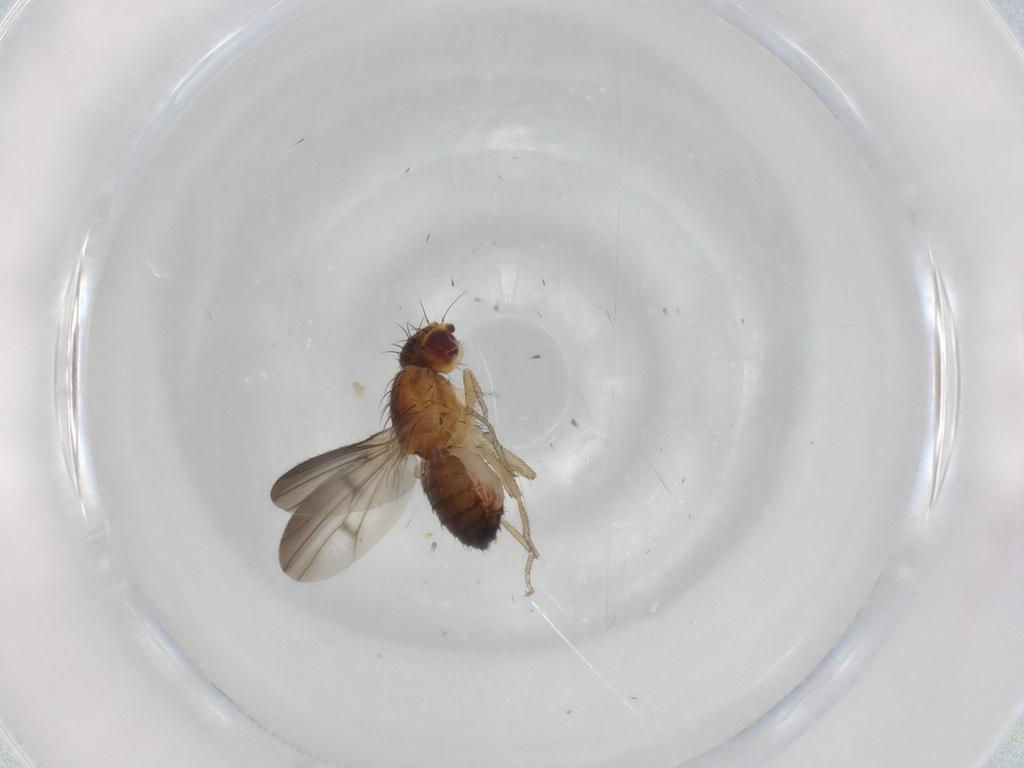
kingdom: Animalia
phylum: Arthropoda
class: Insecta
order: Diptera
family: Heleomyzidae
